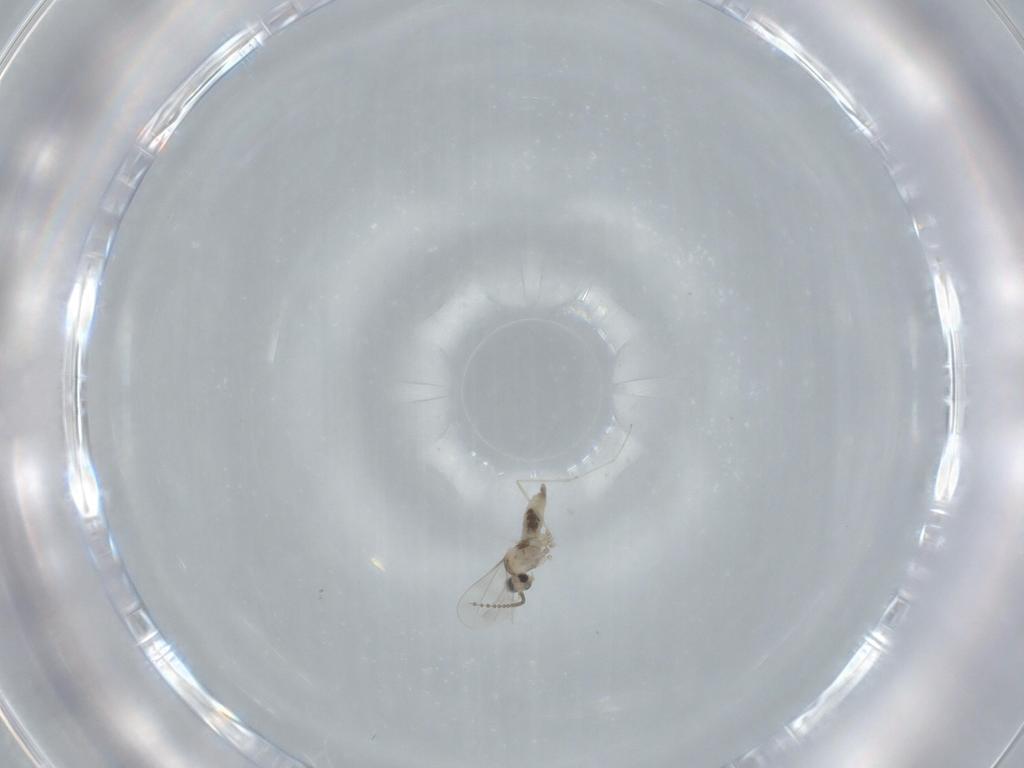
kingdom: Animalia
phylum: Arthropoda
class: Insecta
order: Diptera
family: Cecidomyiidae
